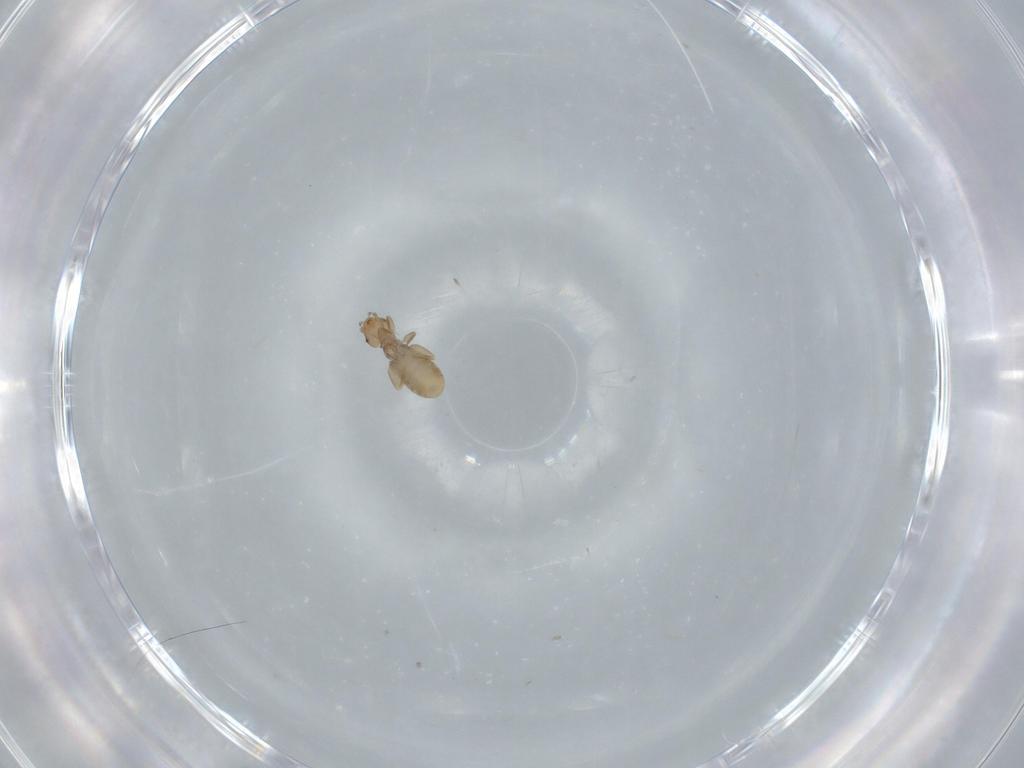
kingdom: Animalia
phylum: Arthropoda
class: Insecta
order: Psocodea
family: Liposcelididae
